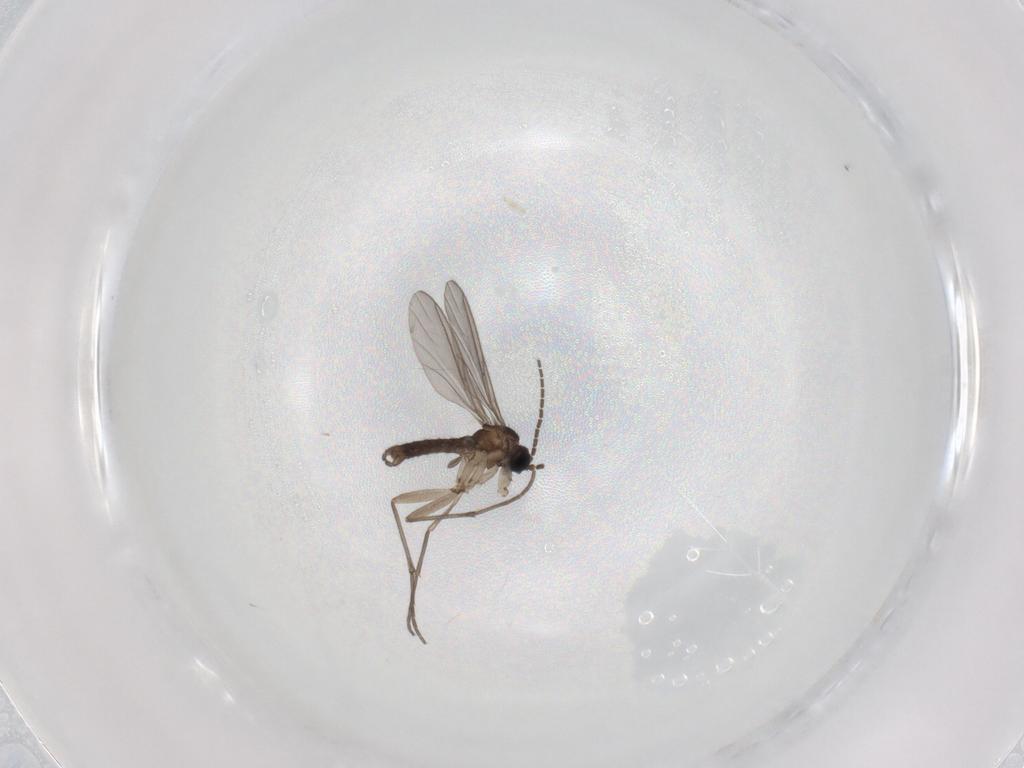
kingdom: Animalia
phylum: Arthropoda
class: Insecta
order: Diptera
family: Sciaridae
